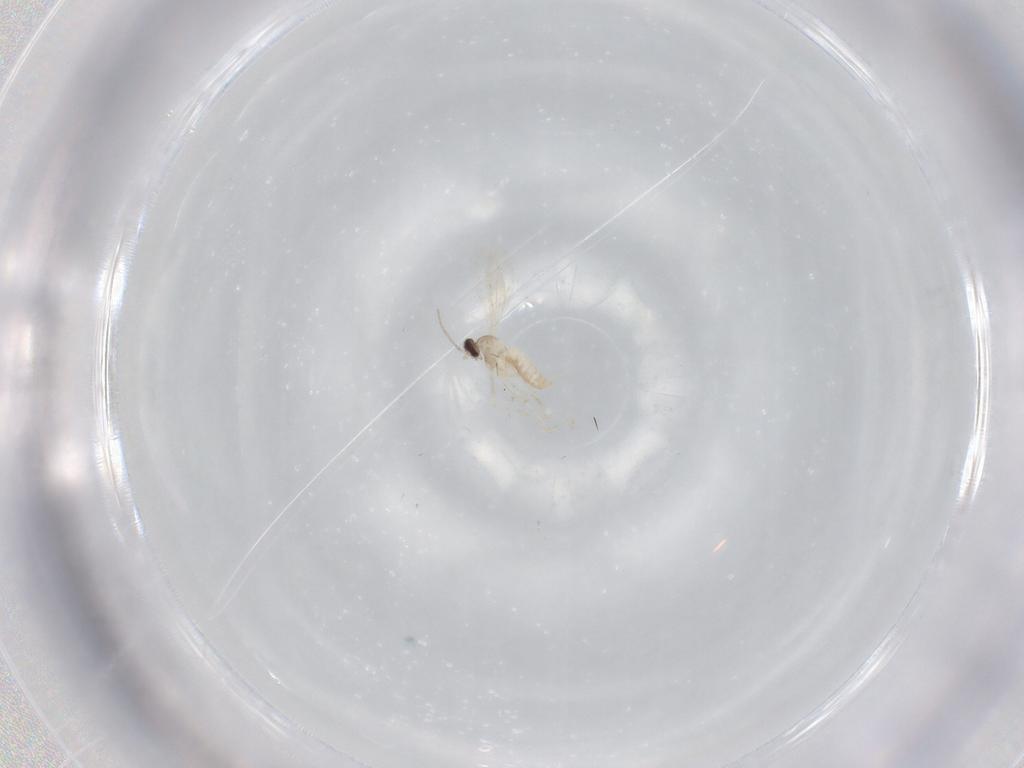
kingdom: Animalia
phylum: Arthropoda
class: Insecta
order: Diptera
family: Cecidomyiidae
